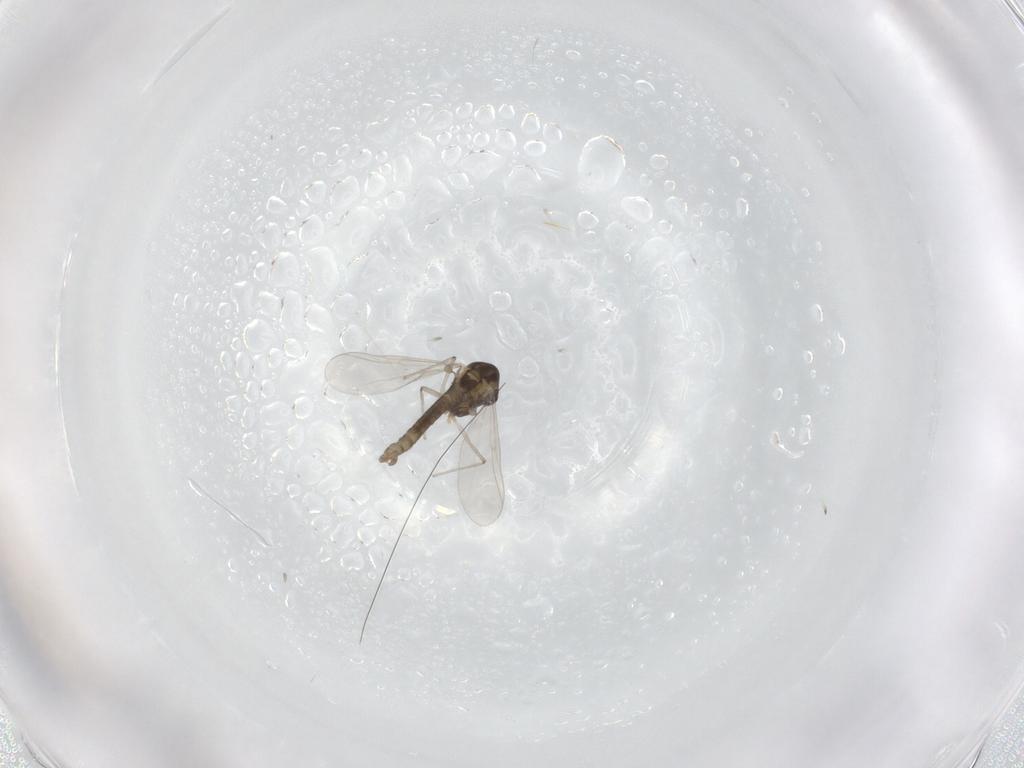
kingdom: Animalia
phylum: Arthropoda
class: Insecta
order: Diptera
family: Chironomidae
